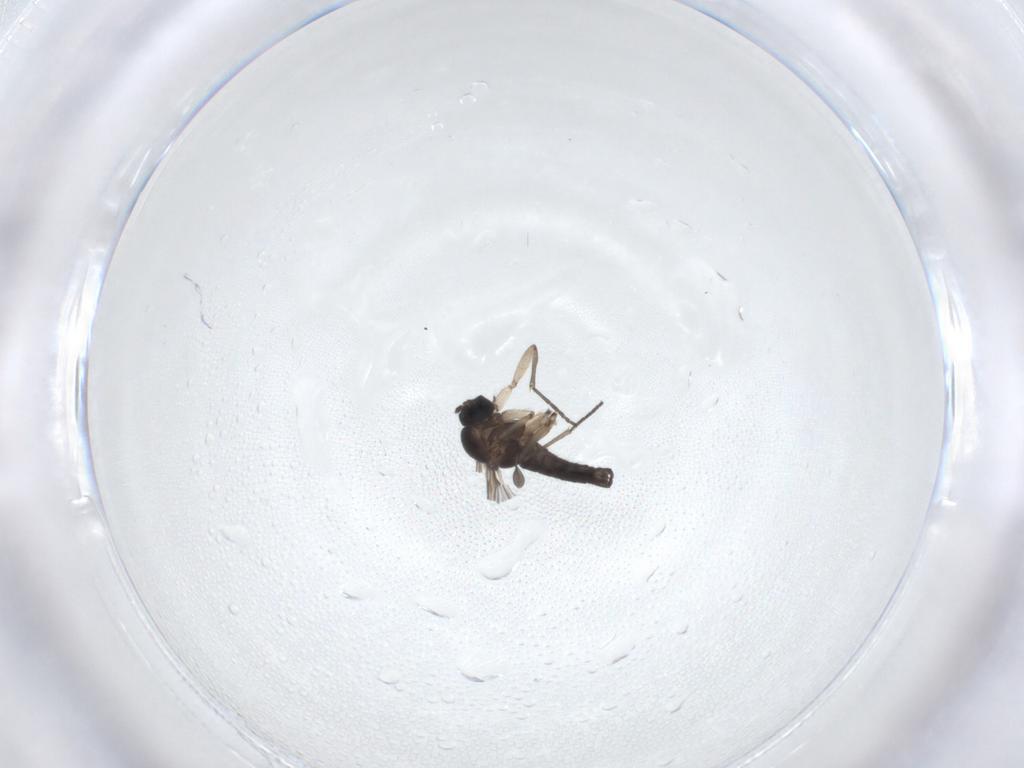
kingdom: Animalia
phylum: Arthropoda
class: Insecta
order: Diptera
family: Sciaridae
